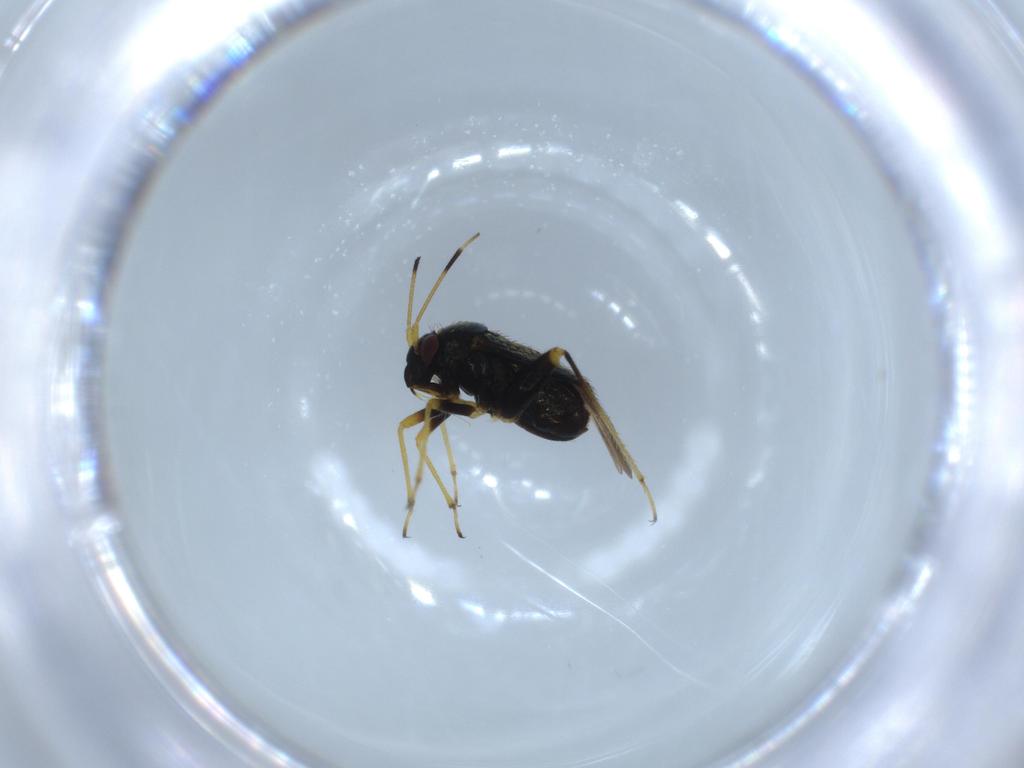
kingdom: Animalia
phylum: Arthropoda
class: Insecta
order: Hemiptera
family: Miridae
